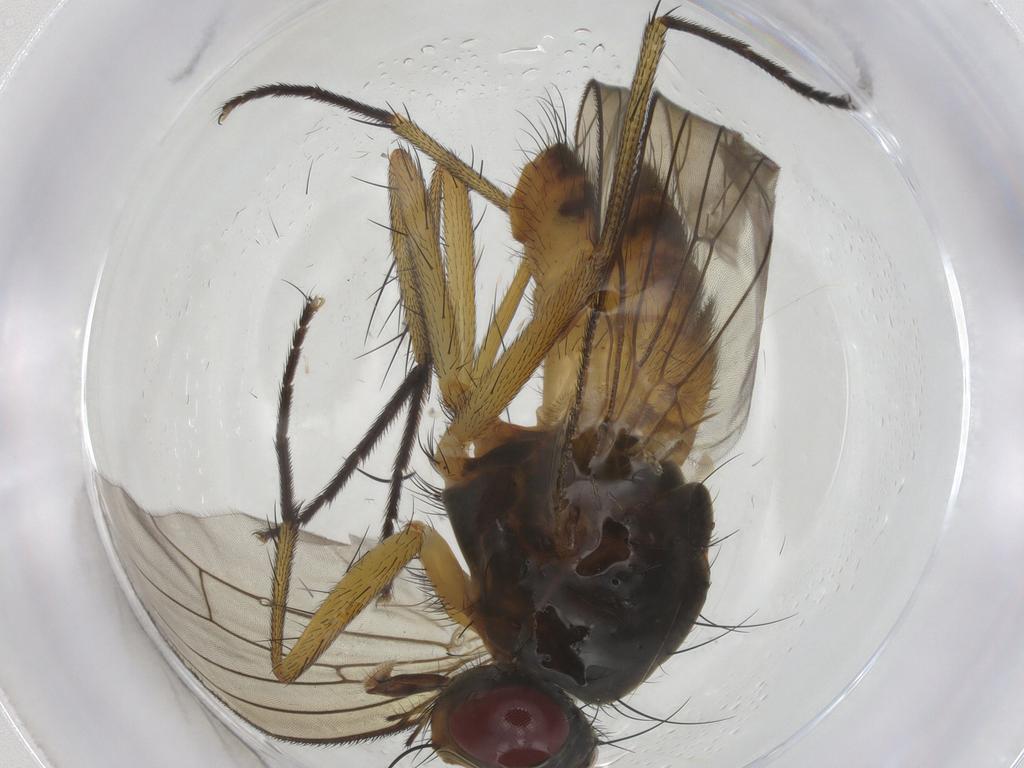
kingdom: Animalia
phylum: Arthropoda
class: Insecta
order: Diptera
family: Muscidae
